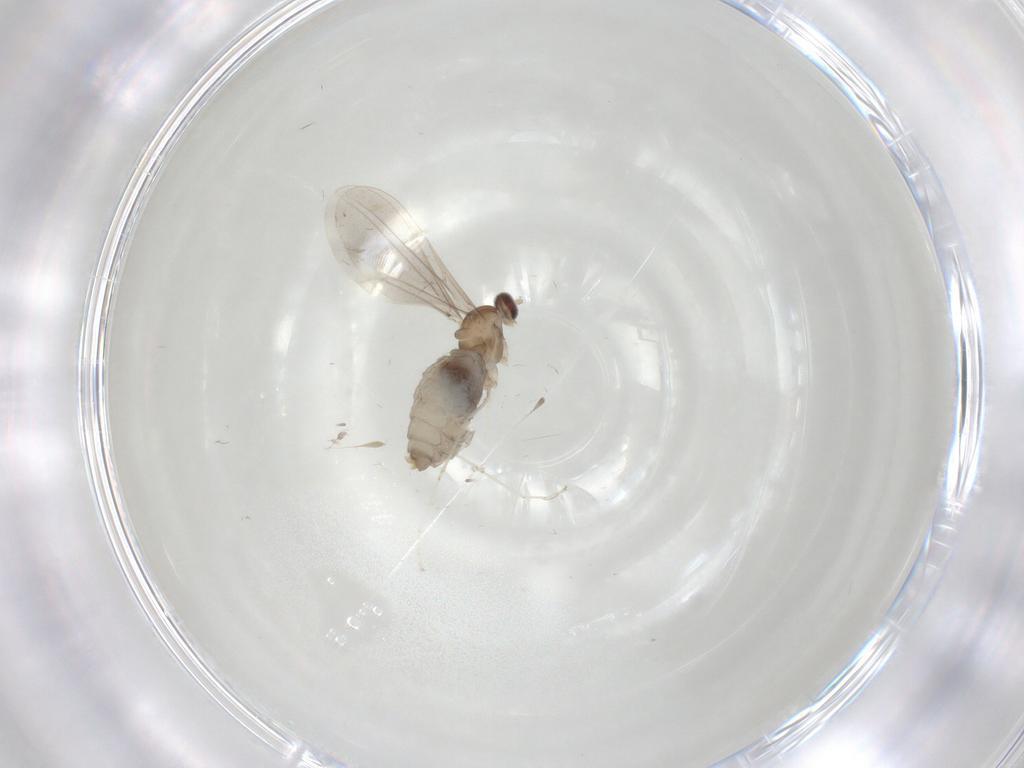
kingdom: Animalia
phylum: Arthropoda
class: Insecta
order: Diptera
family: Cecidomyiidae
